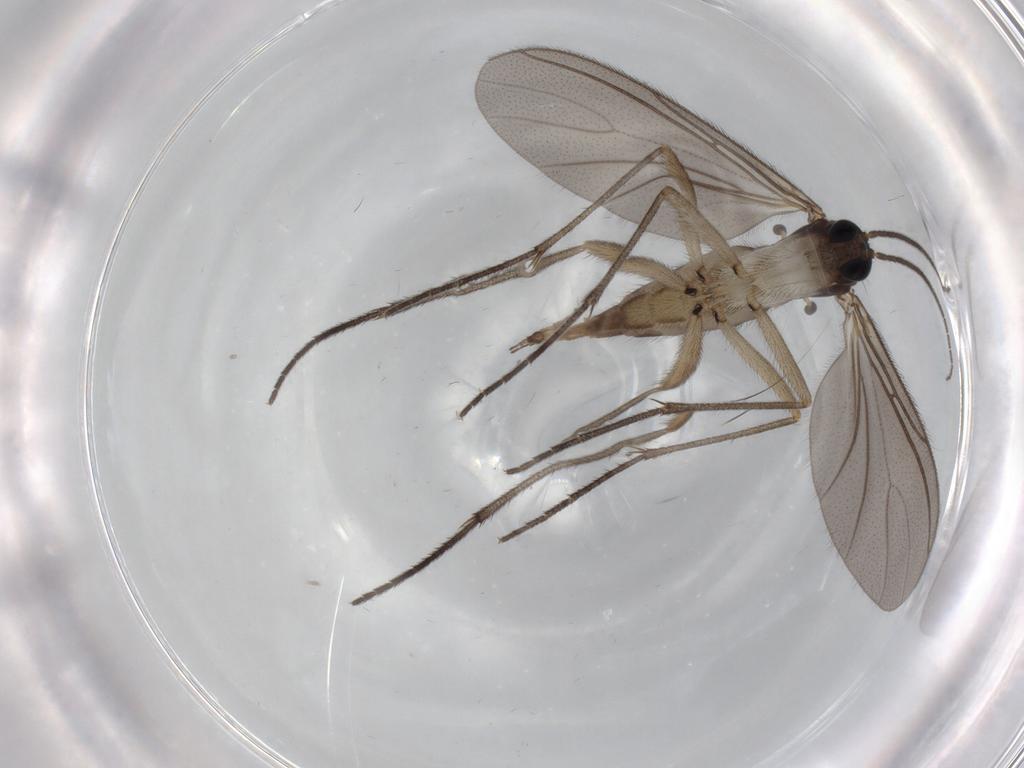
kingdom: Animalia
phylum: Arthropoda
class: Insecta
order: Diptera
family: Sciaridae
